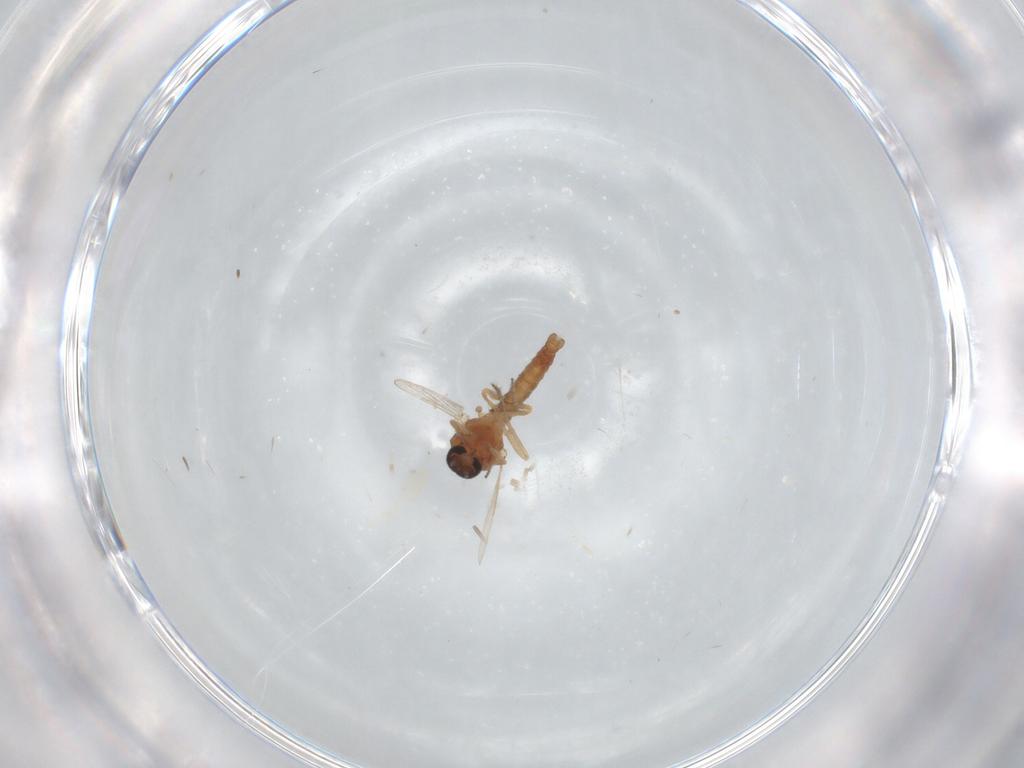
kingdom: Animalia
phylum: Arthropoda
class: Insecta
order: Diptera
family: Ceratopogonidae
